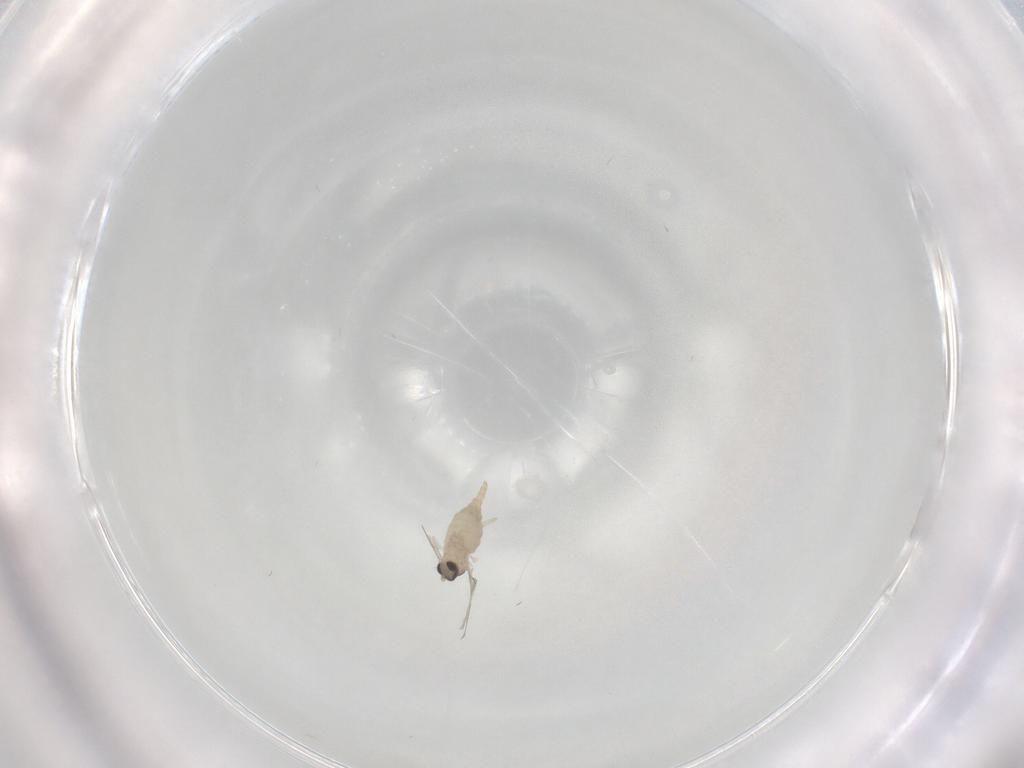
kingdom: Animalia
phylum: Arthropoda
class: Insecta
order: Diptera
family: Cecidomyiidae
